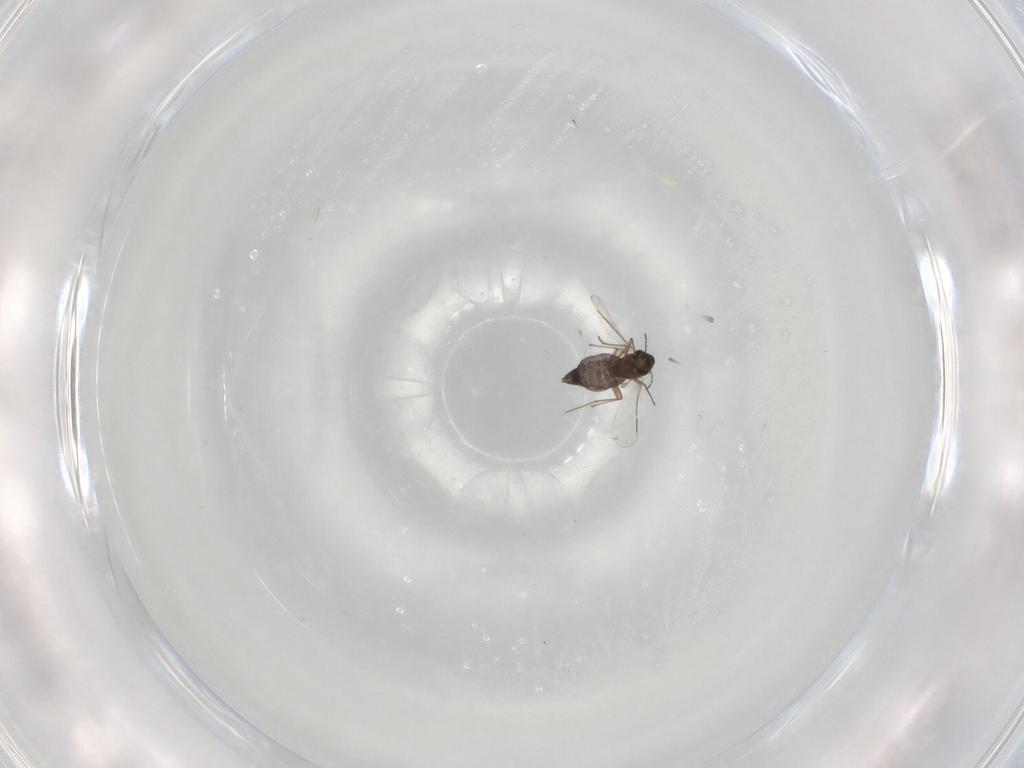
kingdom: Animalia
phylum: Arthropoda
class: Insecta
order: Diptera
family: Chironomidae
